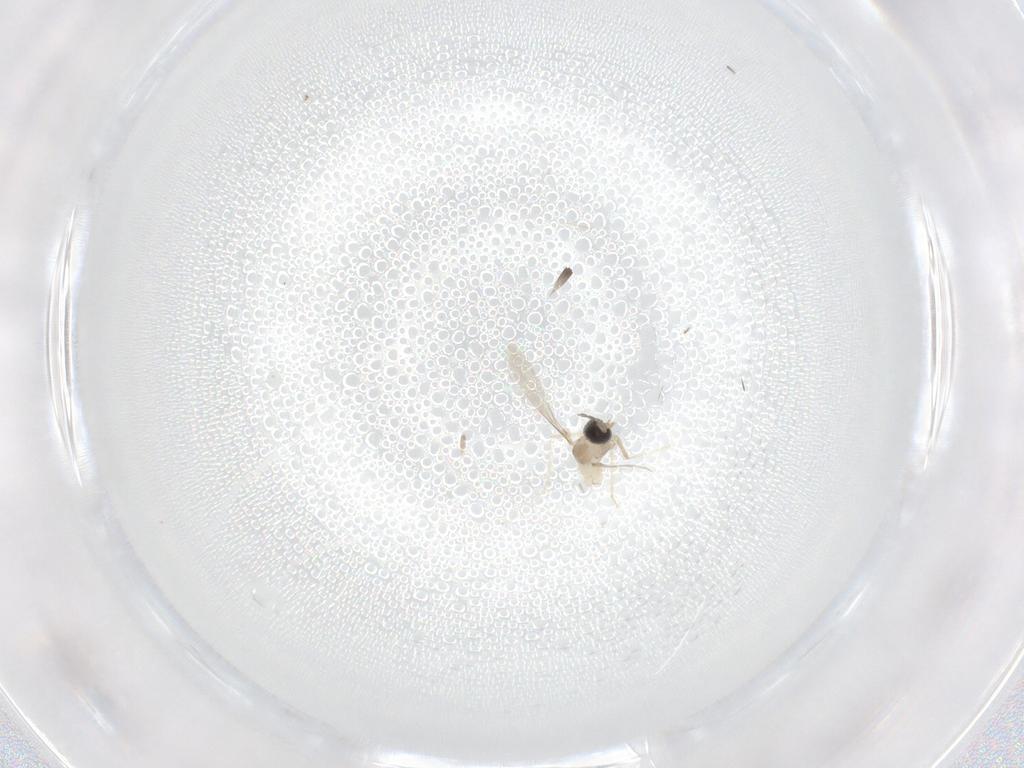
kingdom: Animalia
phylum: Arthropoda
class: Insecta
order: Diptera
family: Cecidomyiidae
